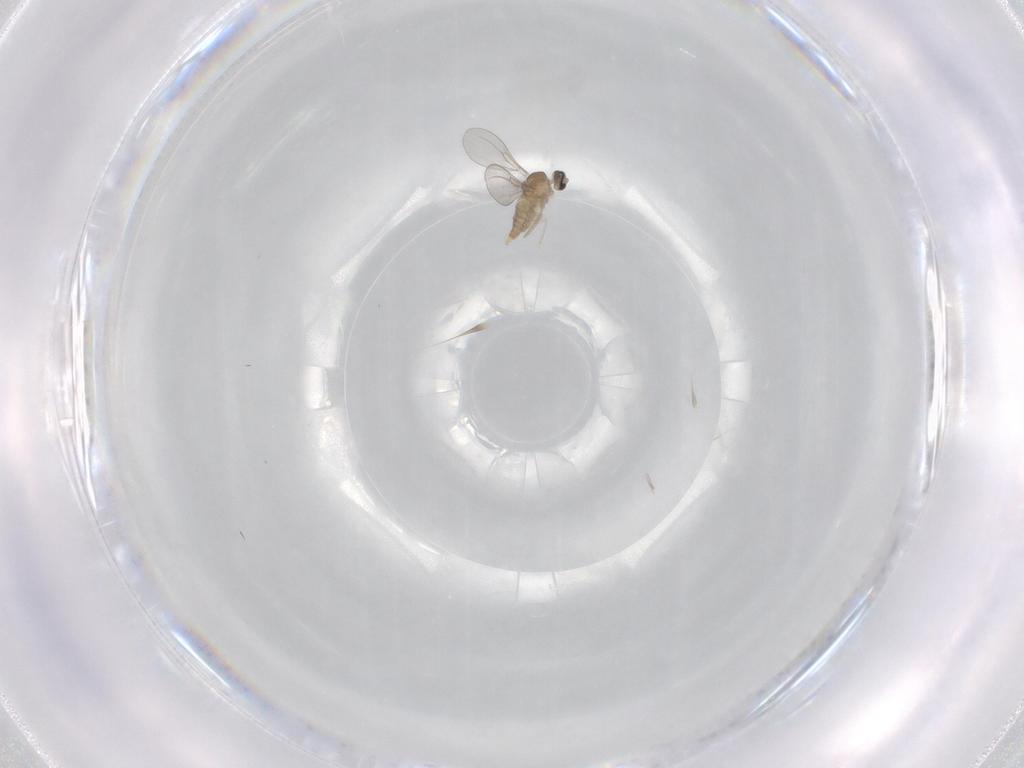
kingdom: Animalia
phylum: Arthropoda
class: Insecta
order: Diptera
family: Cecidomyiidae
